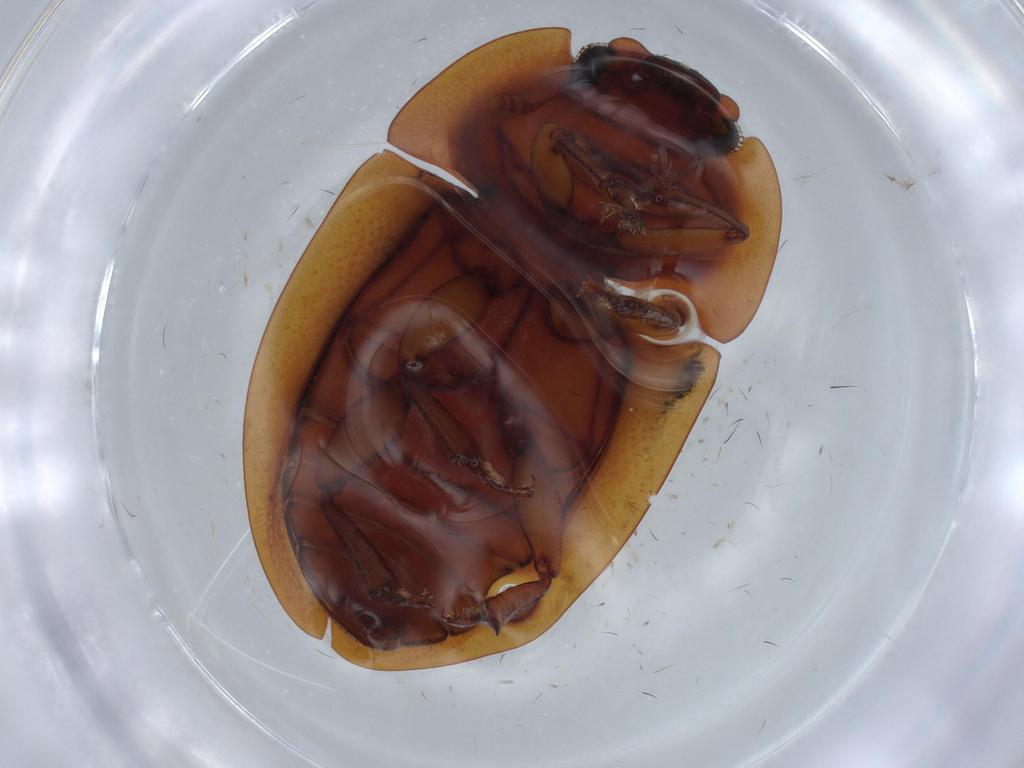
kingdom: Animalia
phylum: Arthropoda
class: Insecta
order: Coleoptera
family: Nitidulidae
